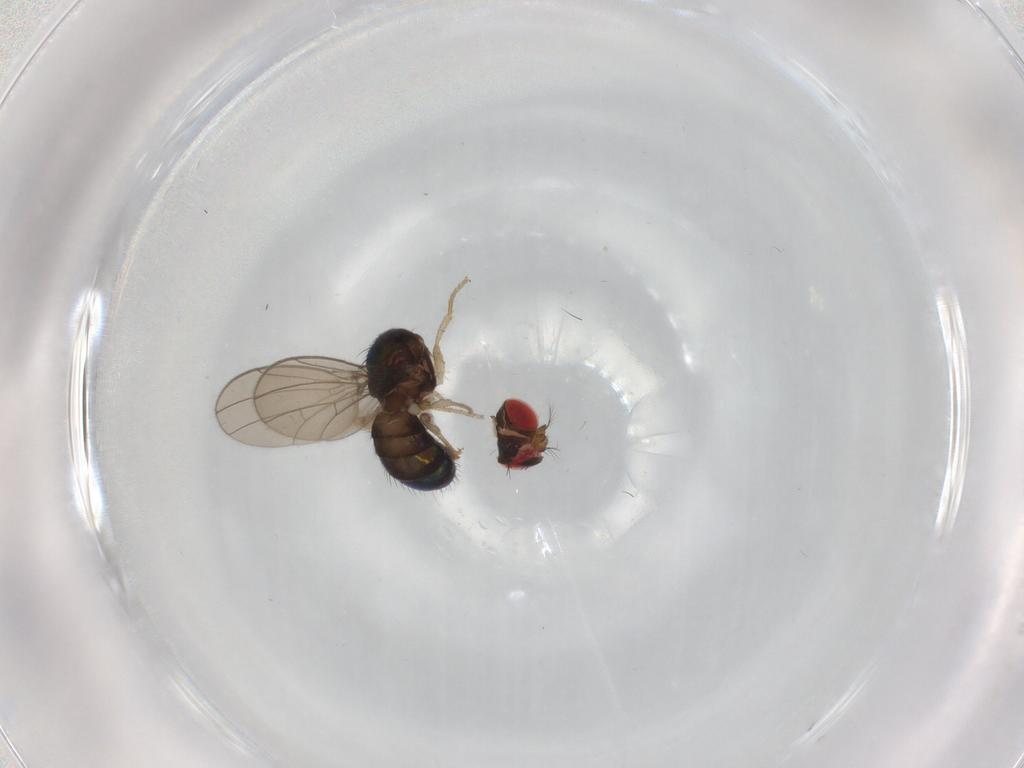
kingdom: Animalia
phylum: Arthropoda
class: Insecta
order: Diptera
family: Drosophilidae
